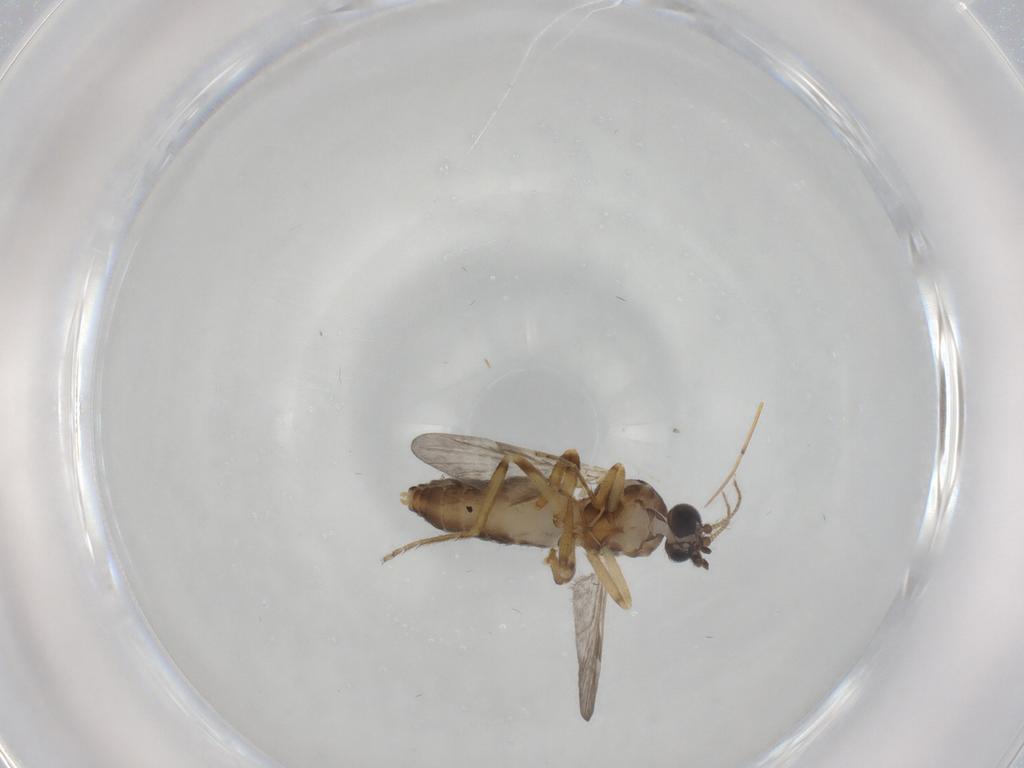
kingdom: Animalia
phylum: Arthropoda
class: Insecta
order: Diptera
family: Ceratopogonidae
